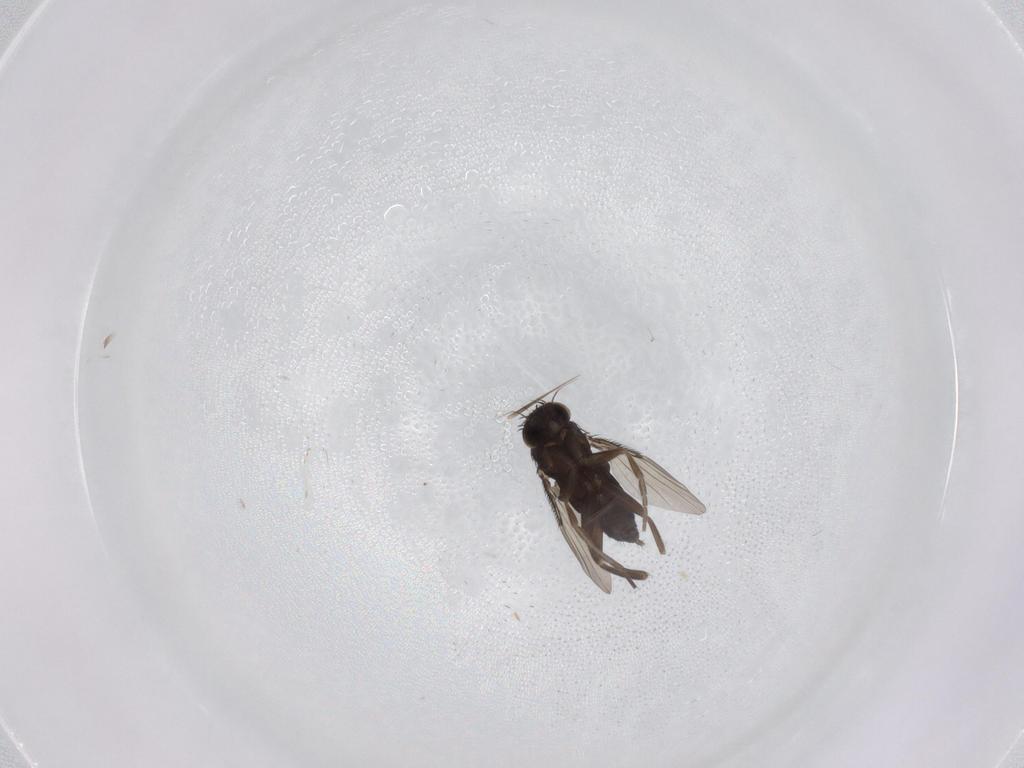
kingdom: Animalia
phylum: Arthropoda
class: Insecta
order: Diptera
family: Phoridae
